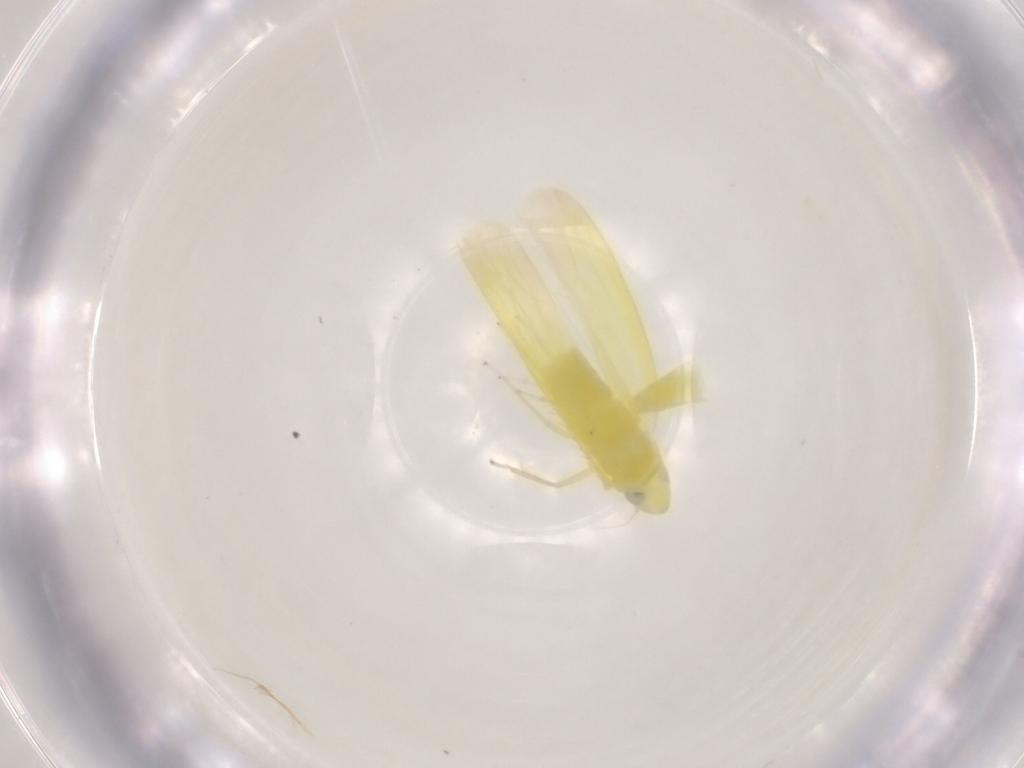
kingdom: Animalia
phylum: Arthropoda
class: Insecta
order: Hemiptera
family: Cicadellidae
